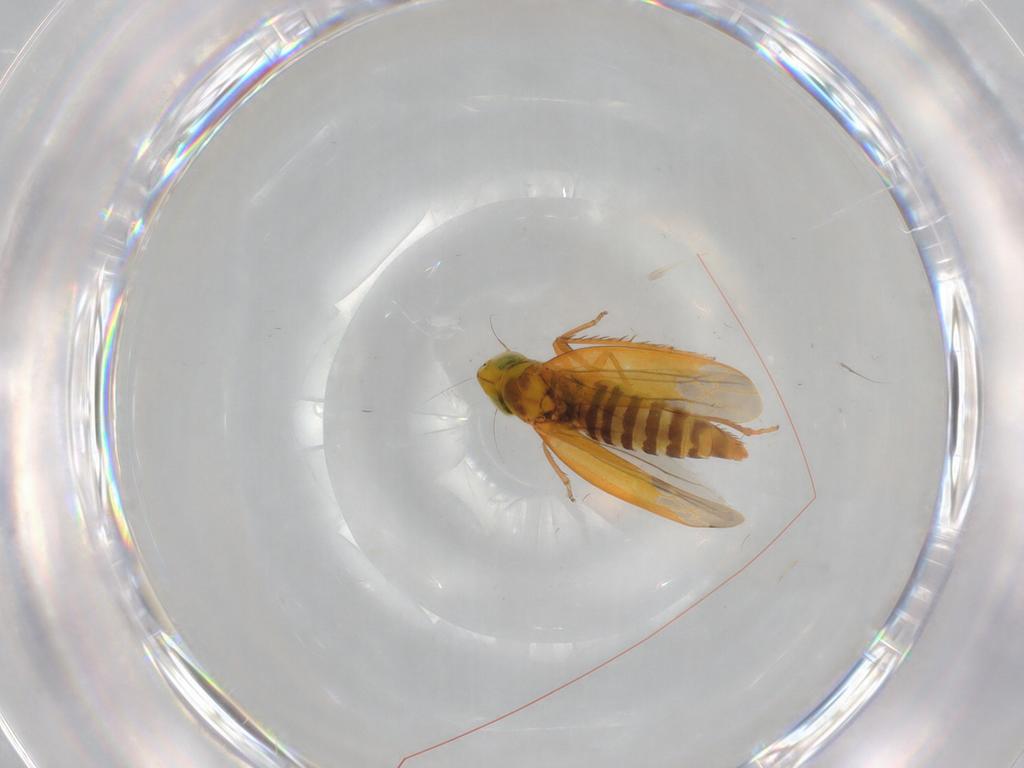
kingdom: Animalia
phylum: Arthropoda
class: Insecta
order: Hemiptera
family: Cicadellidae
